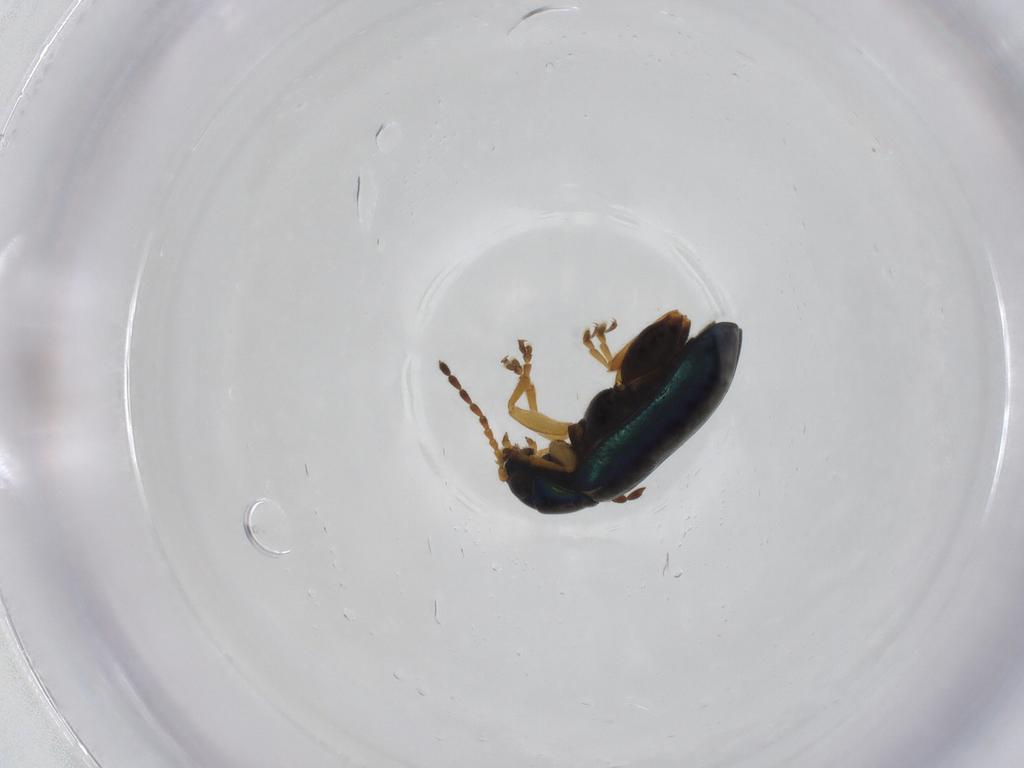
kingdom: Animalia
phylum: Arthropoda
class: Insecta
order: Coleoptera
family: Chrysomelidae
